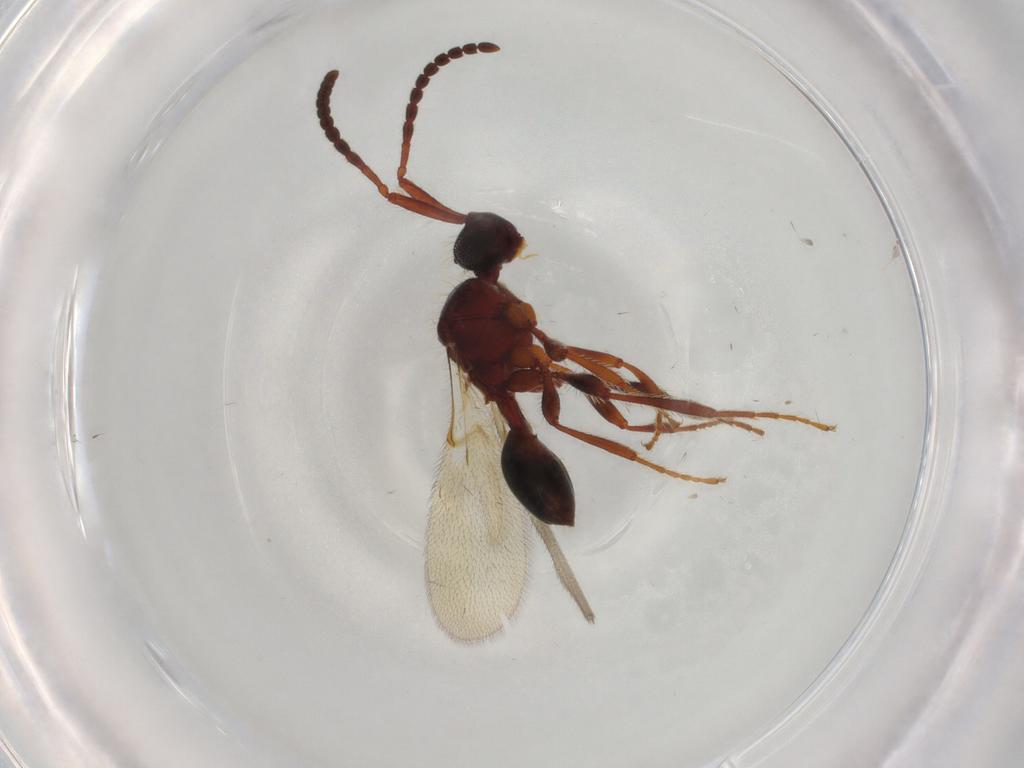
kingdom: Animalia
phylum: Arthropoda
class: Insecta
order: Hymenoptera
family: Diapriidae
